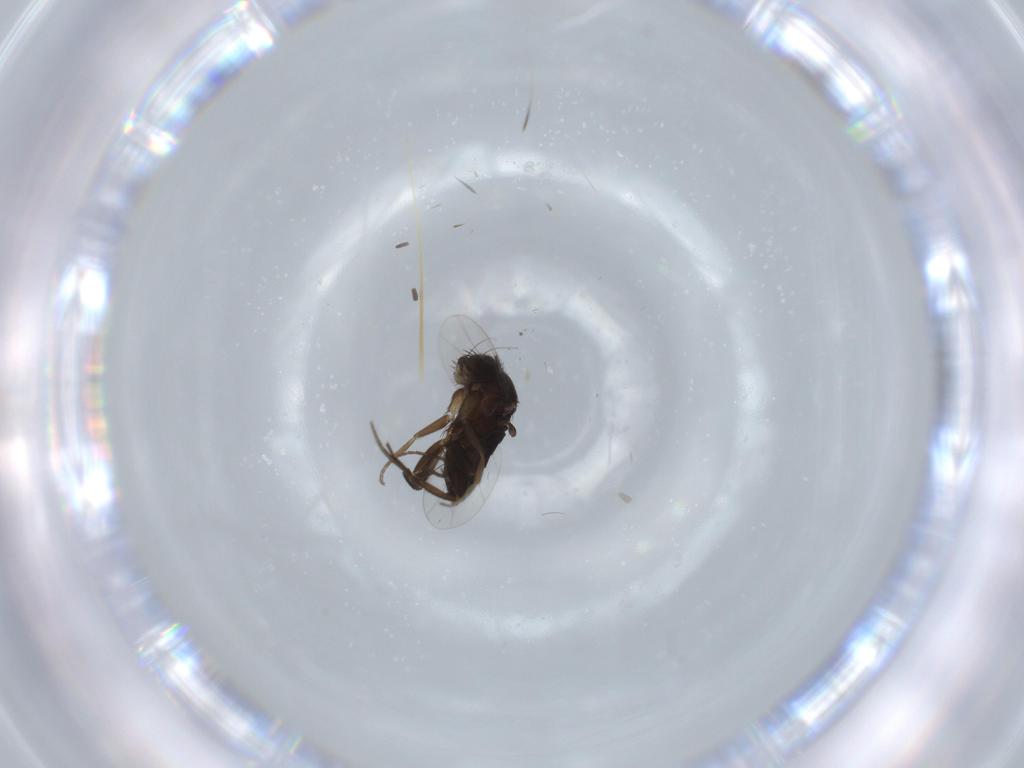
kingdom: Animalia
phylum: Arthropoda
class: Insecta
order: Diptera
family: Phoridae
